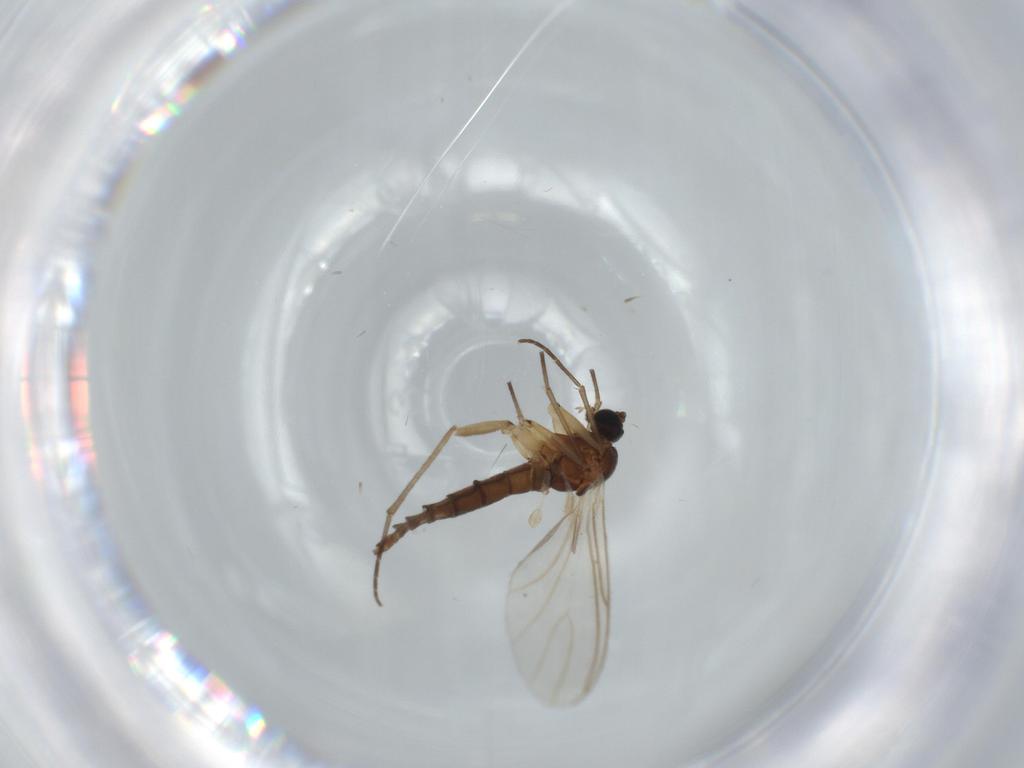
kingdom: Animalia
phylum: Arthropoda
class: Insecta
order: Diptera
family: Sciaridae
